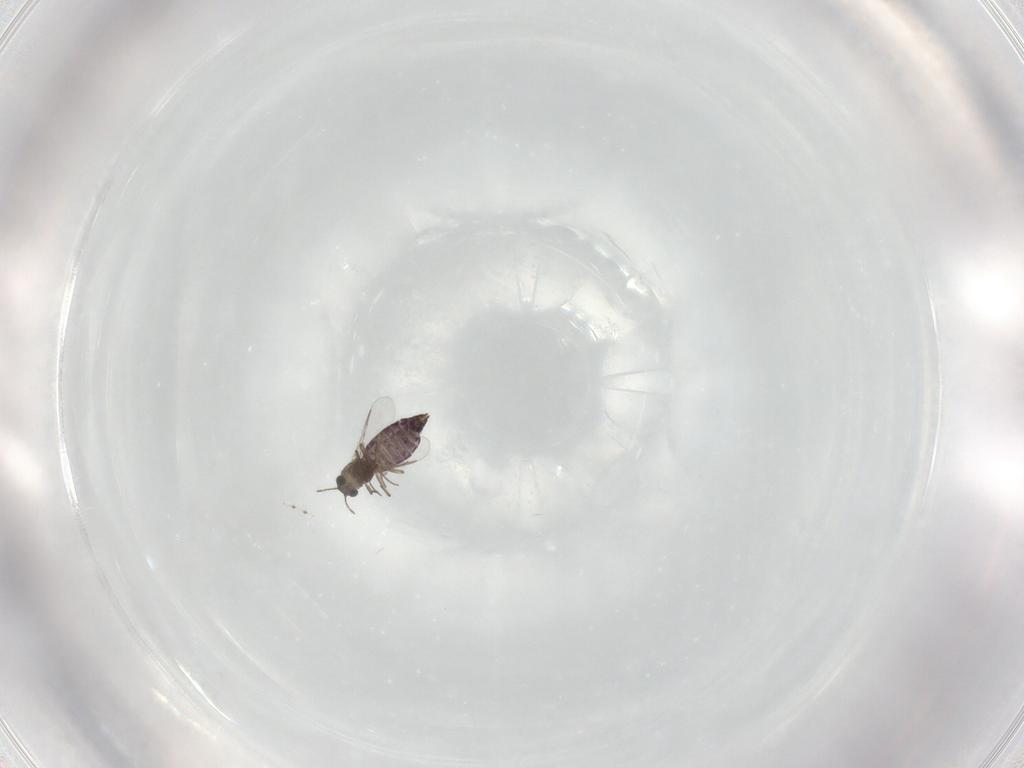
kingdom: Animalia
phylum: Arthropoda
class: Insecta
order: Diptera
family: Chironomidae
